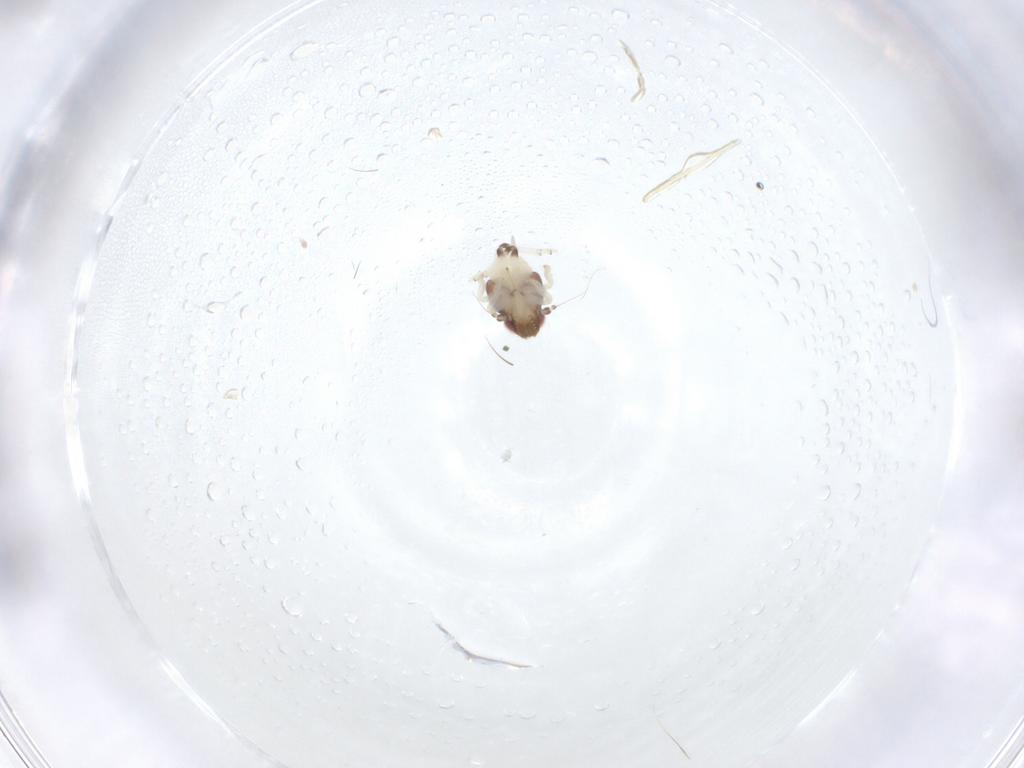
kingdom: Animalia
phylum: Arthropoda
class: Insecta
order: Hemiptera
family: Nogodinidae
